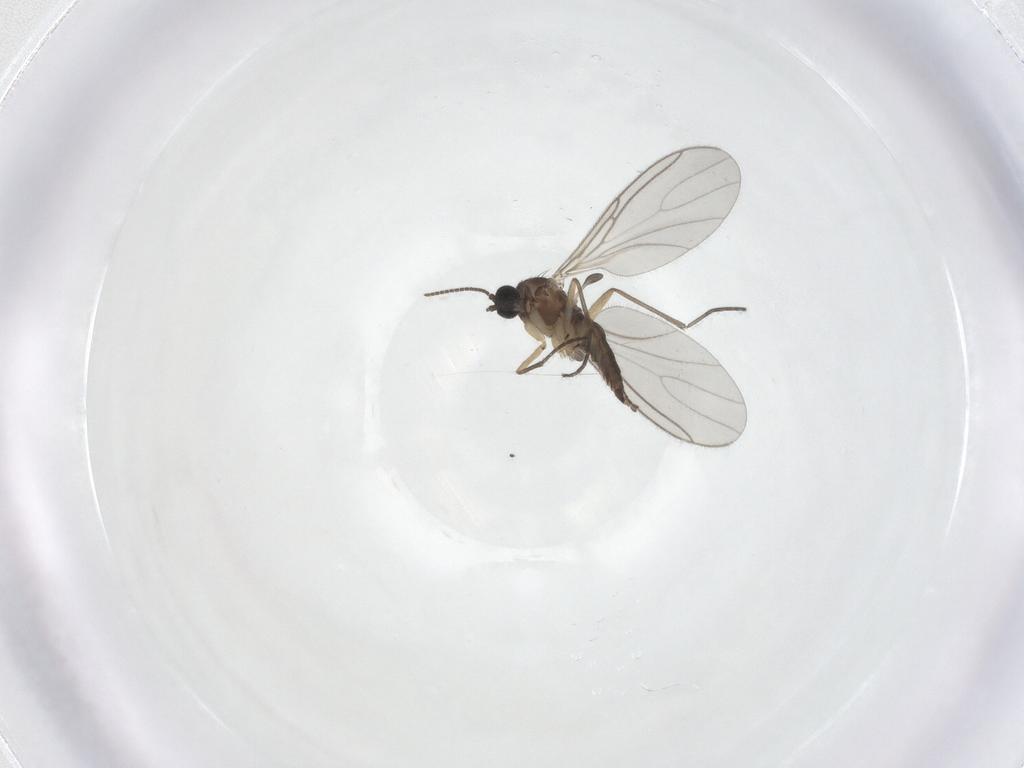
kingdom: Animalia
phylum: Arthropoda
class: Insecta
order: Diptera
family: Sciaridae
